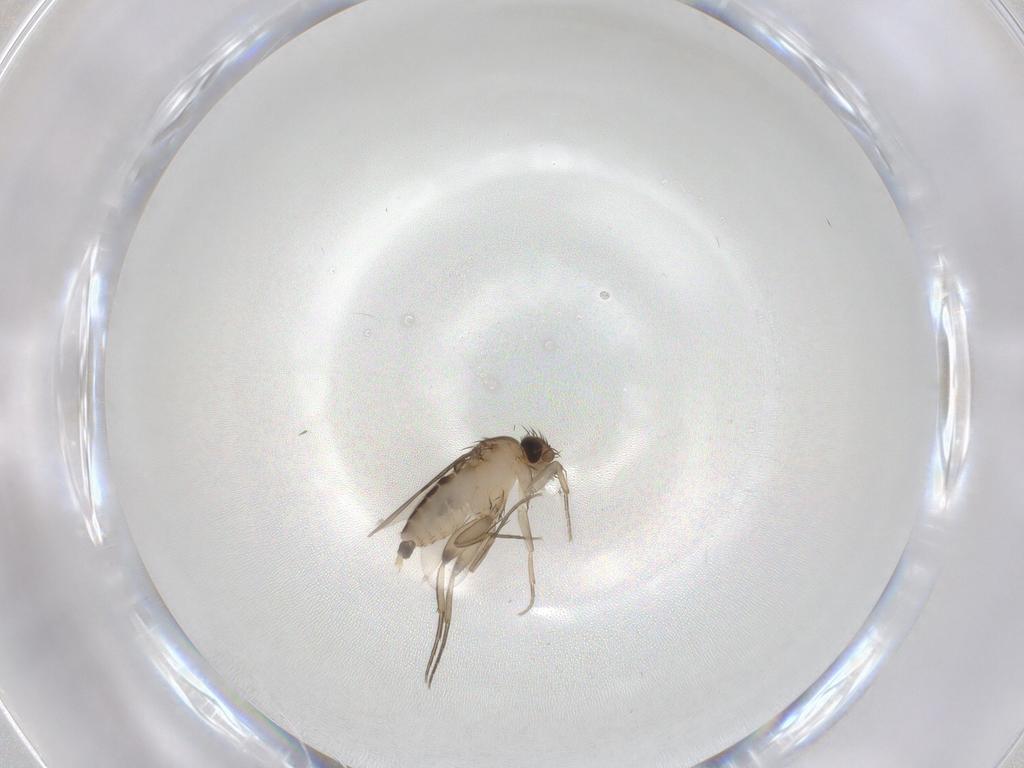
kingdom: Animalia
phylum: Arthropoda
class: Insecta
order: Diptera
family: Phoridae
